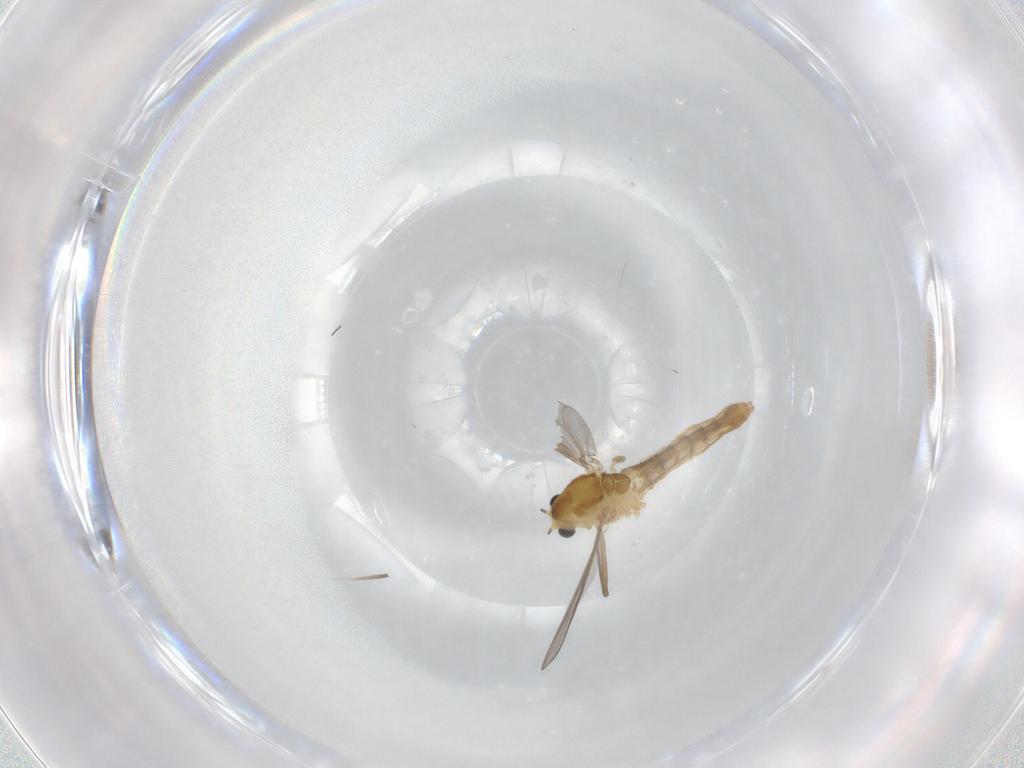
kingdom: Animalia
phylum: Arthropoda
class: Insecta
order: Diptera
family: Chironomidae
